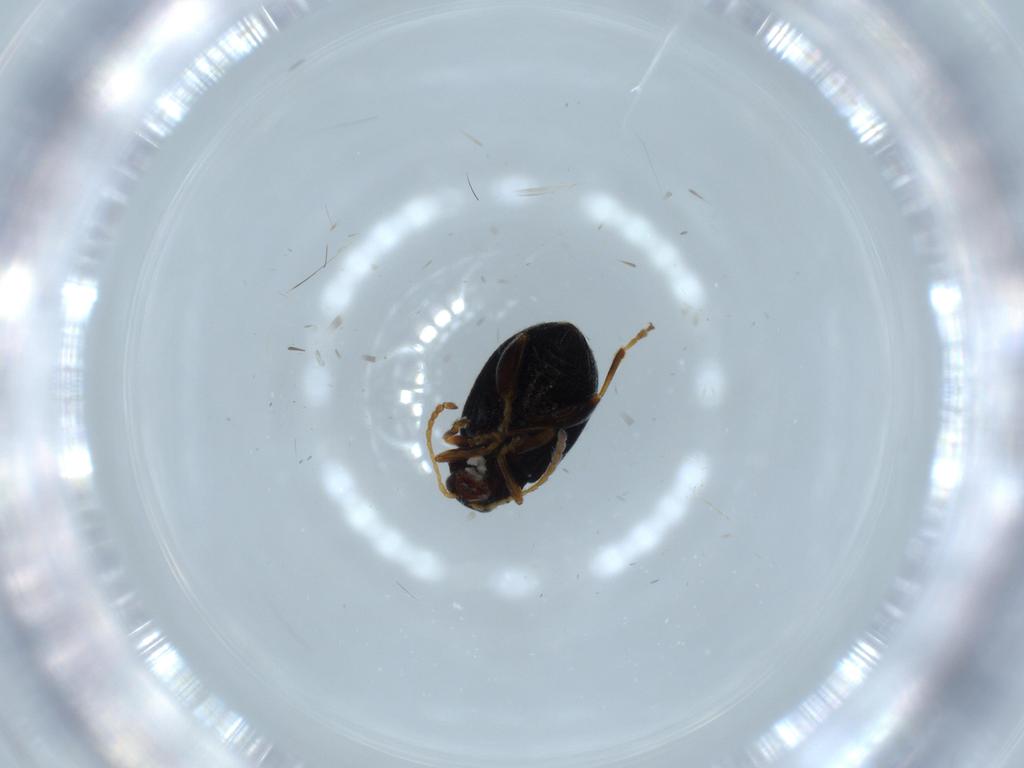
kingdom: Animalia
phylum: Arthropoda
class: Insecta
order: Coleoptera
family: Chrysomelidae
